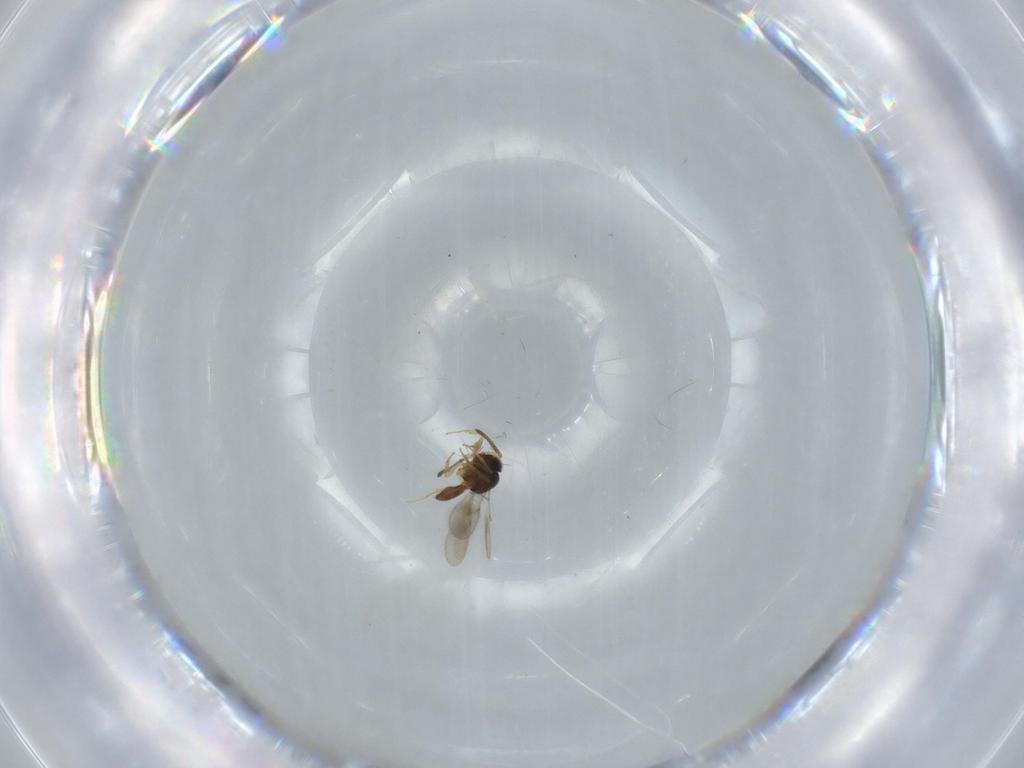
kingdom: Animalia
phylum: Arthropoda
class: Insecta
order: Hymenoptera
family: Scelionidae
